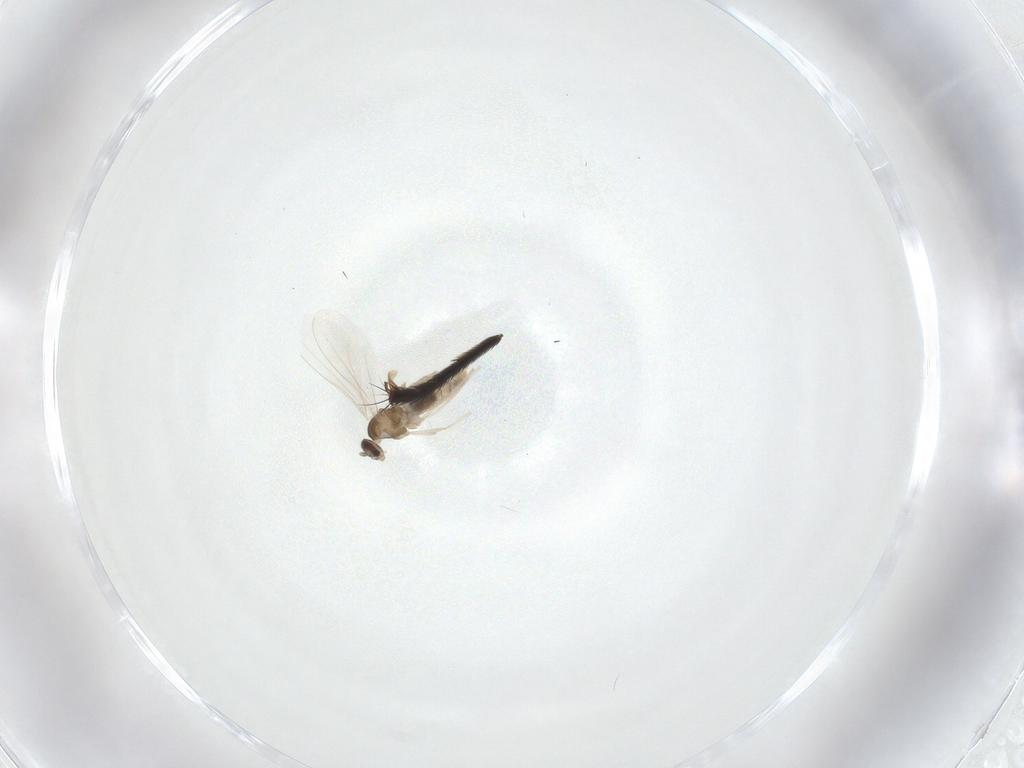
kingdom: Animalia
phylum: Arthropoda
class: Insecta
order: Diptera
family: Cecidomyiidae
